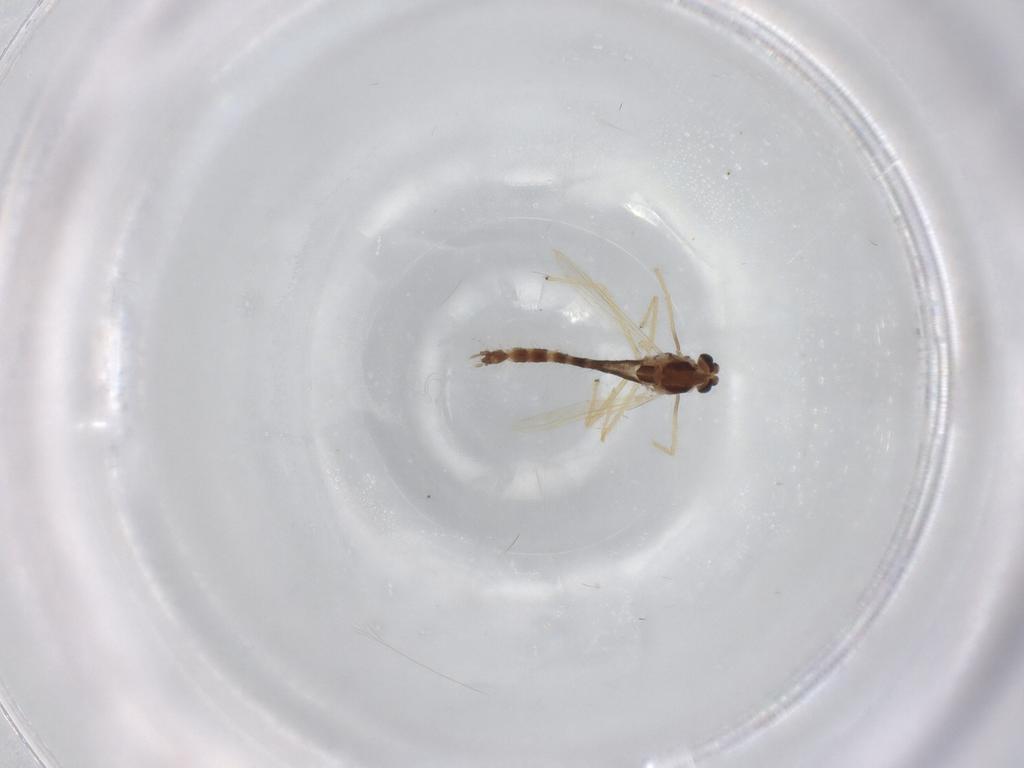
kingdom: Animalia
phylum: Arthropoda
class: Insecta
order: Diptera
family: Chironomidae
